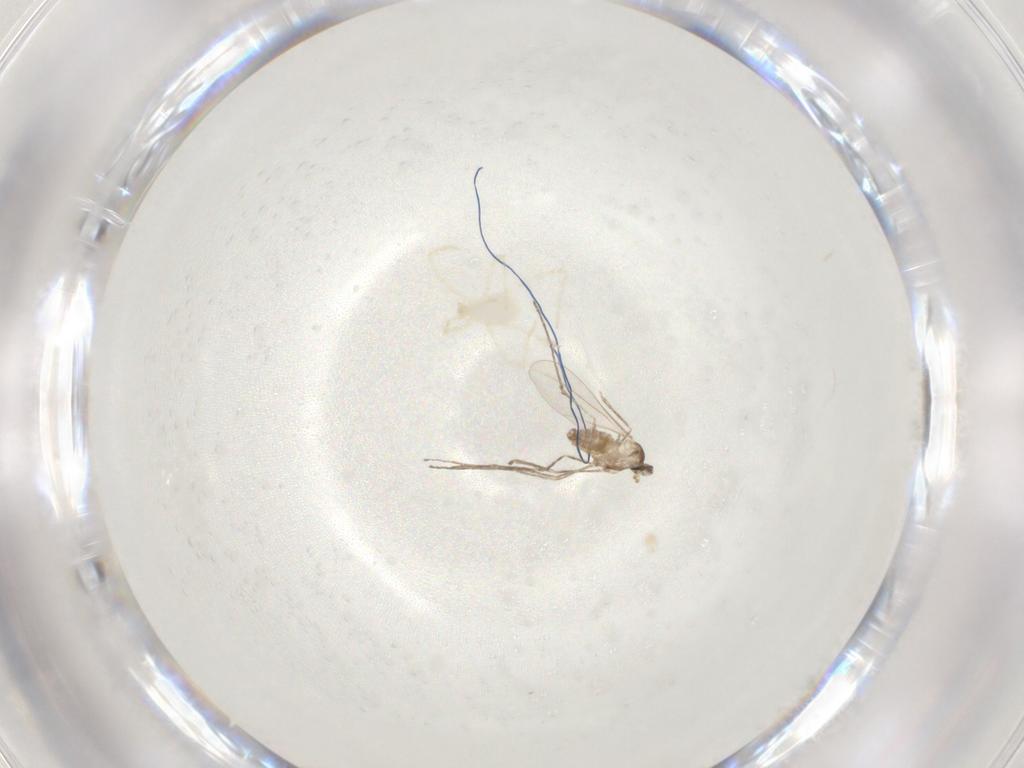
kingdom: Animalia
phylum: Arthropoda
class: Insecta
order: Diptera
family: Cecidomyiidae
